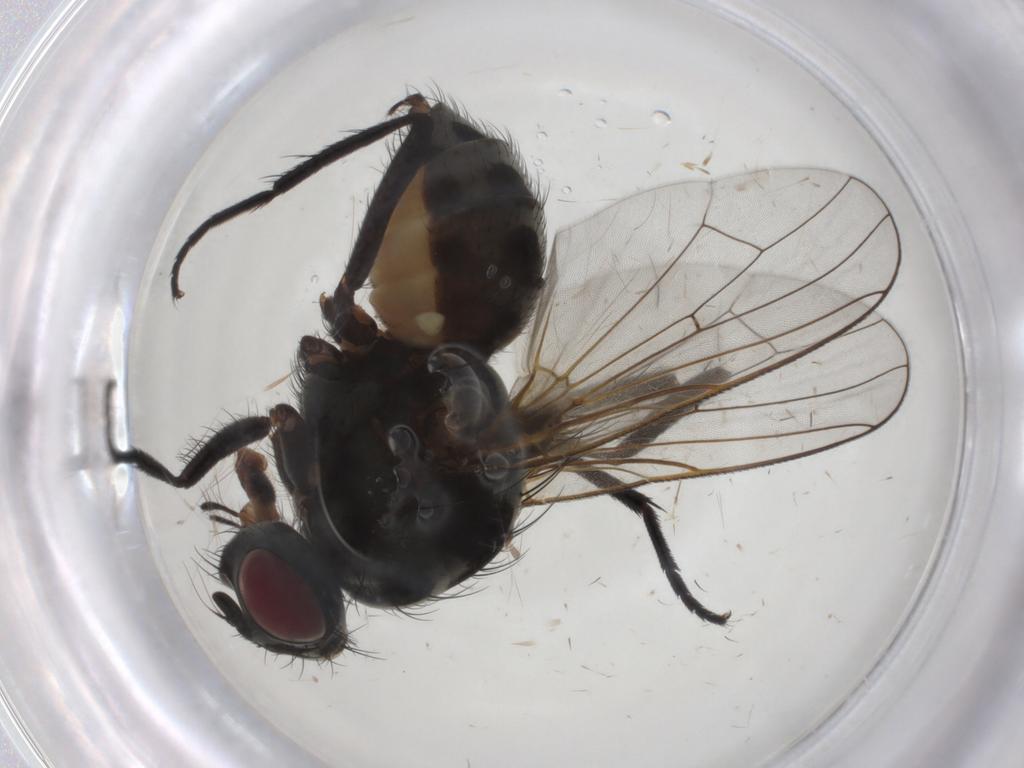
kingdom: Animalia
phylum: Arthropoda
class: Insecta
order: Diptera
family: Anthomyiidae
